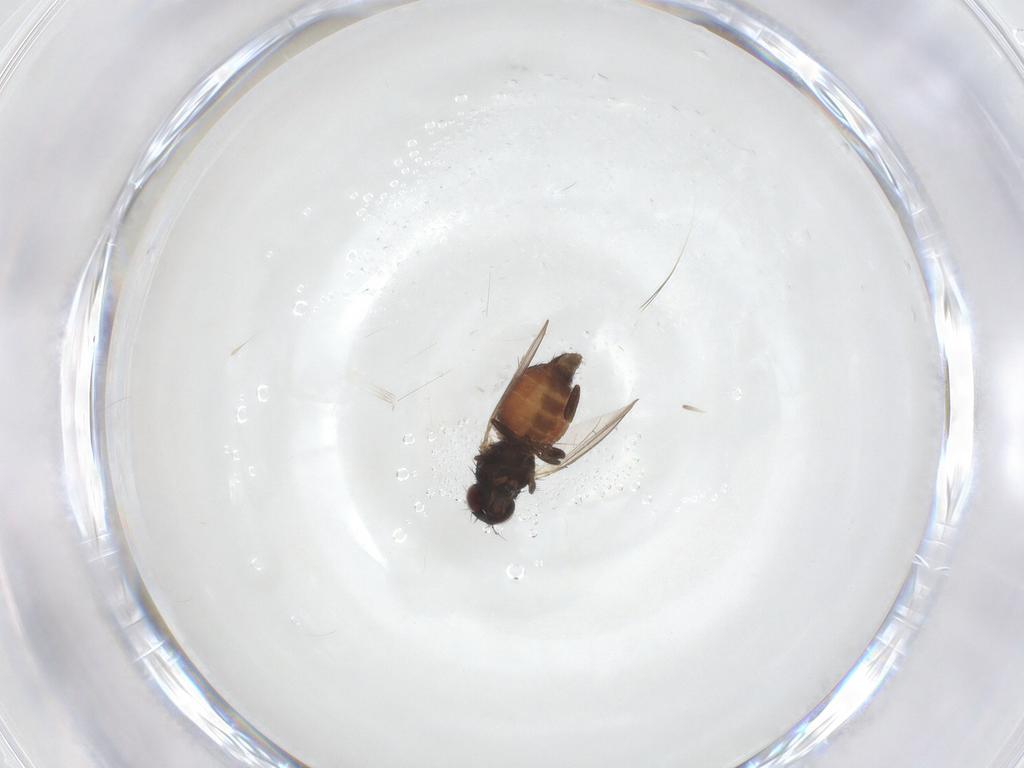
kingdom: Animalia
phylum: Arthropoda
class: Insecta
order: Diptera
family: Carnidae
